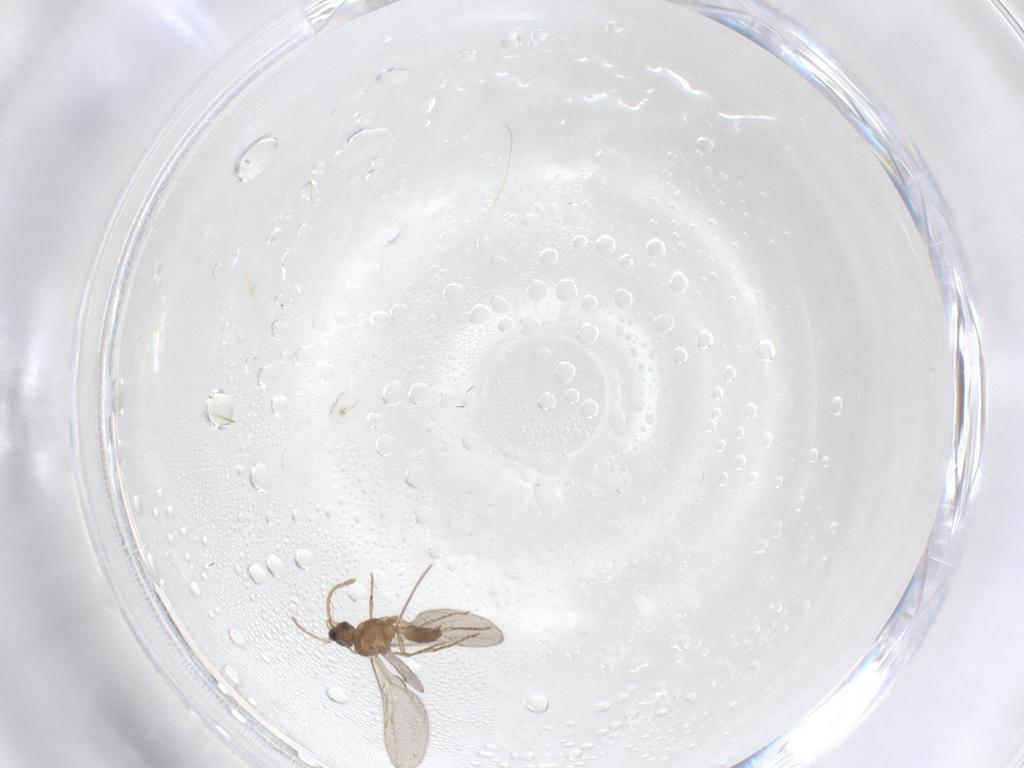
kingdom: Animalia
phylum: Arthropoda
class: Insecta
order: Hymenoptera
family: Formicidae
